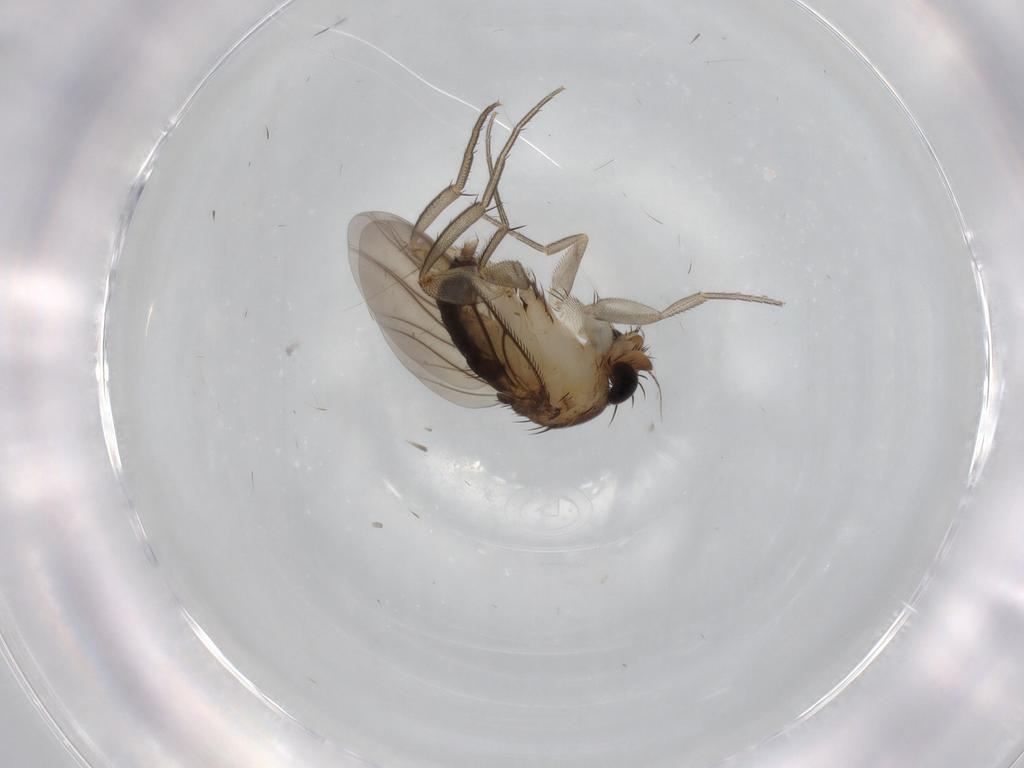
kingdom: Animalia
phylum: Arthropoda
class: Insecta
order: Diptera
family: Phoridae
